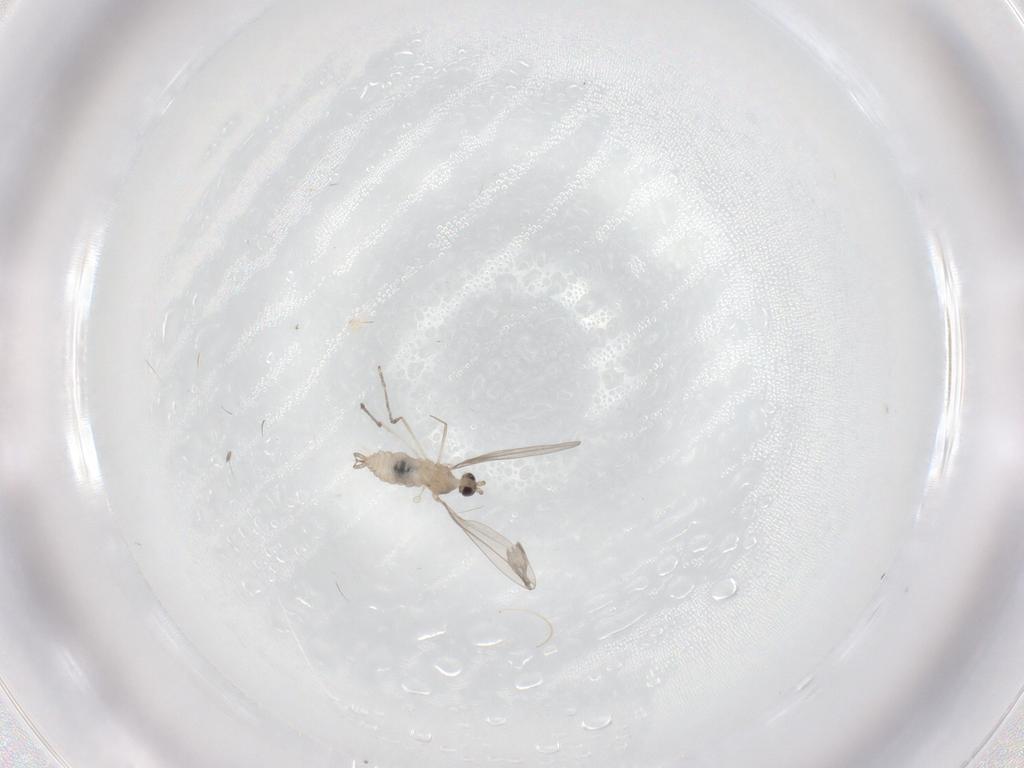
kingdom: Animalia
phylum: Arthropoda
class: Insecta
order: Diptera
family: Cecidomyiidae
